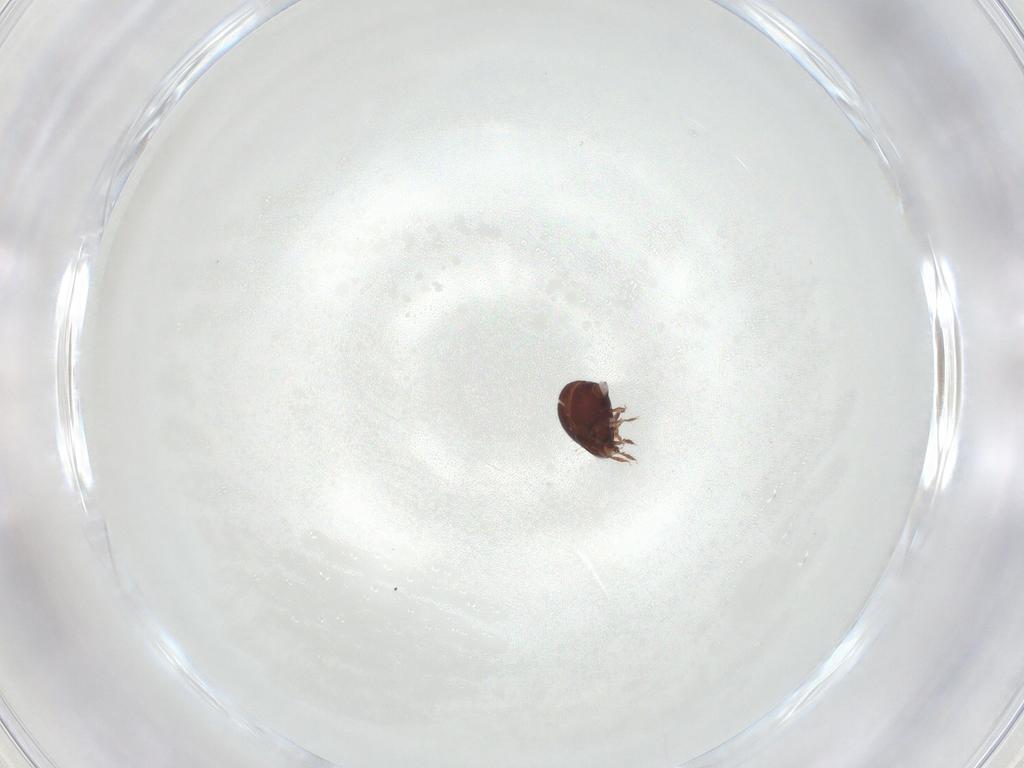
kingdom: Animalia
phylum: Arthropoda
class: Arachnida
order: Sarcoptiformes
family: Humerobatidae
